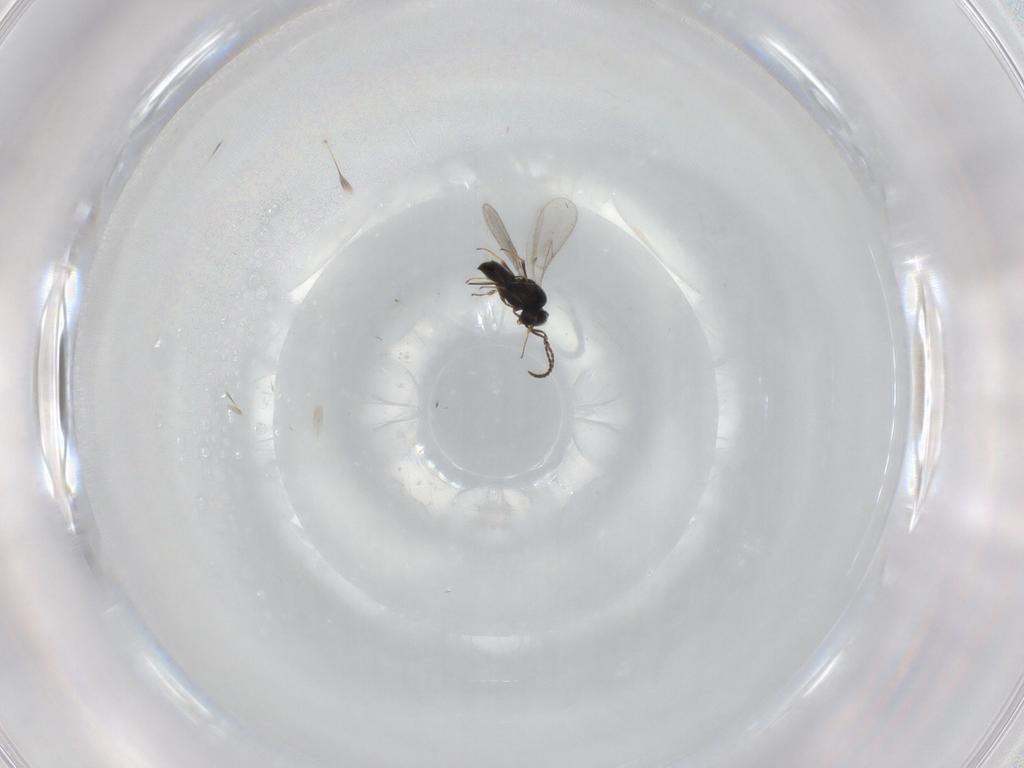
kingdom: Animalia
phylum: Arthropoda
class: Insecta
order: Hymenoptera
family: Scelionidae
